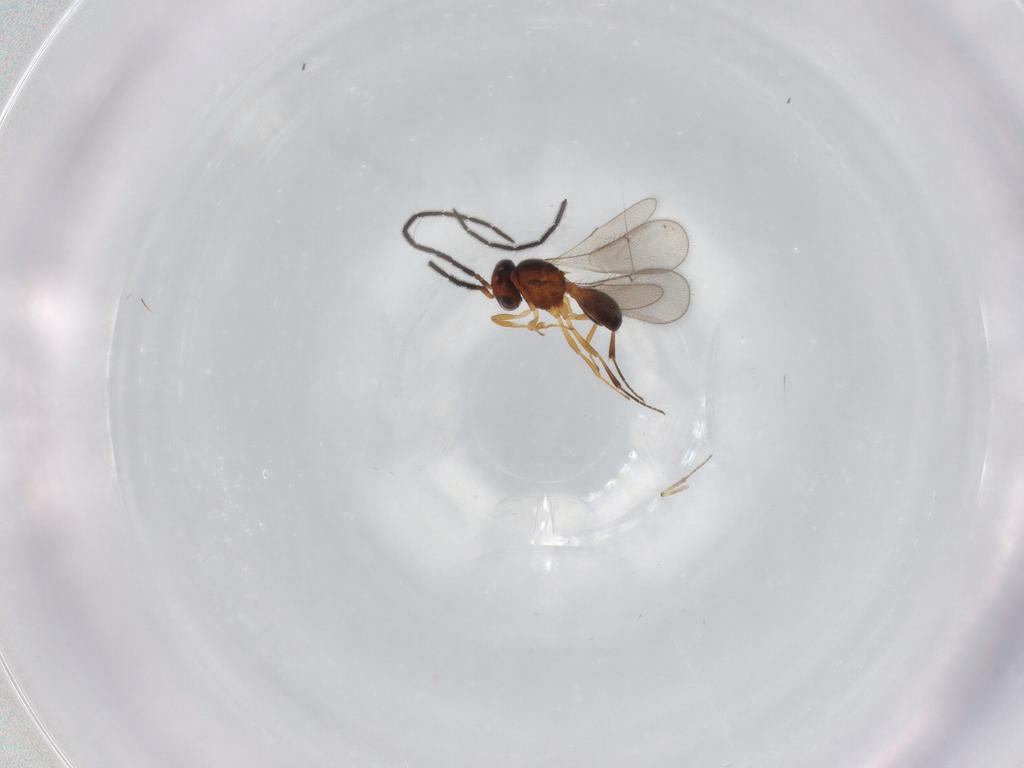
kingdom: Animalia
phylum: Arthropoda
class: Insecta
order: Hymenoptera
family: Scelionidae
